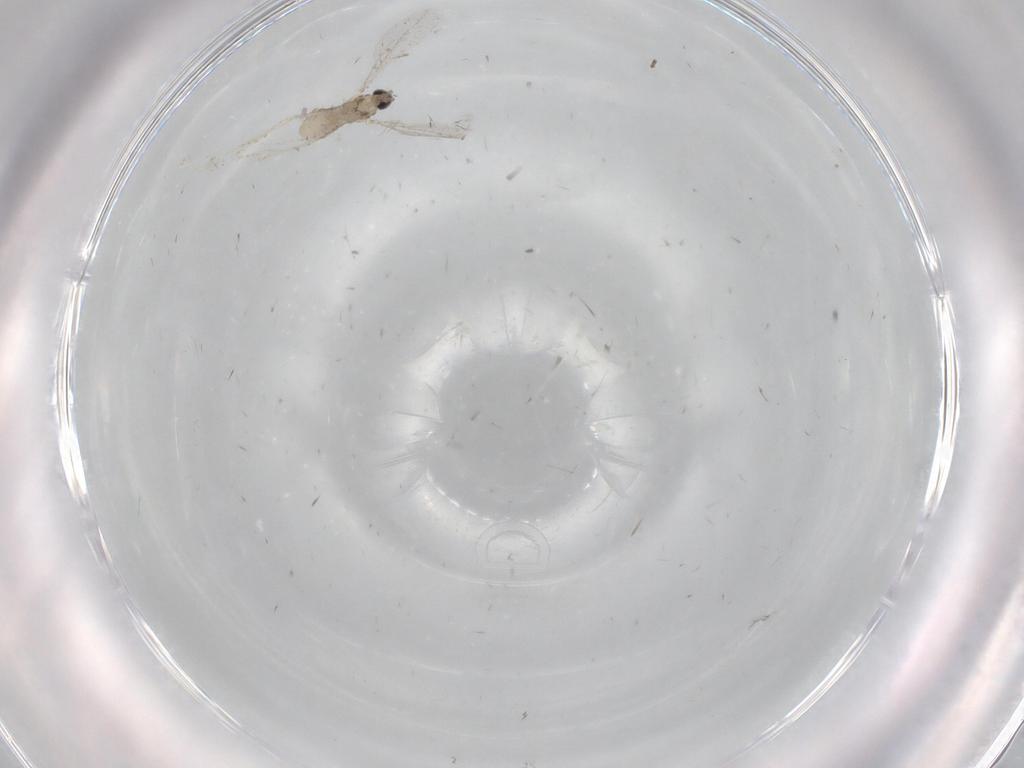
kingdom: Animalia
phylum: Arthropoda
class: Insecta
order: Diptera
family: Cecidomyiidae
